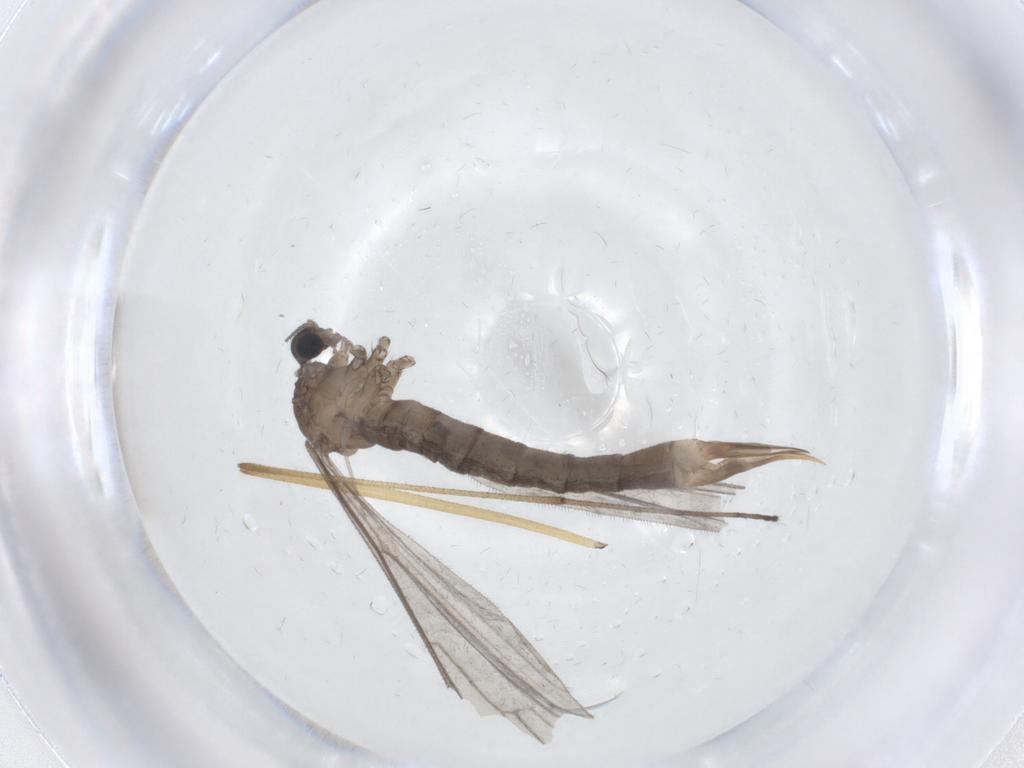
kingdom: Animalia
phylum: Arthropoda
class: Insecta
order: Diptera
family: Limoniidae
